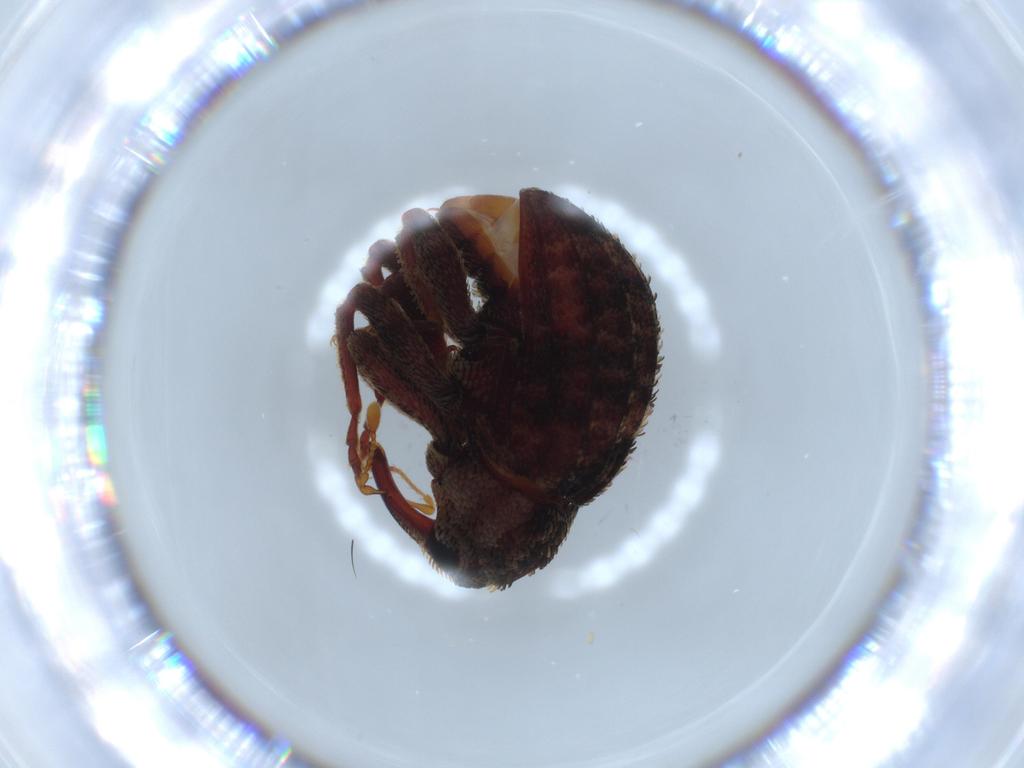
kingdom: Animalia
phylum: Arthropoda
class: Insecta
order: Coleoptera
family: Curculionidae
